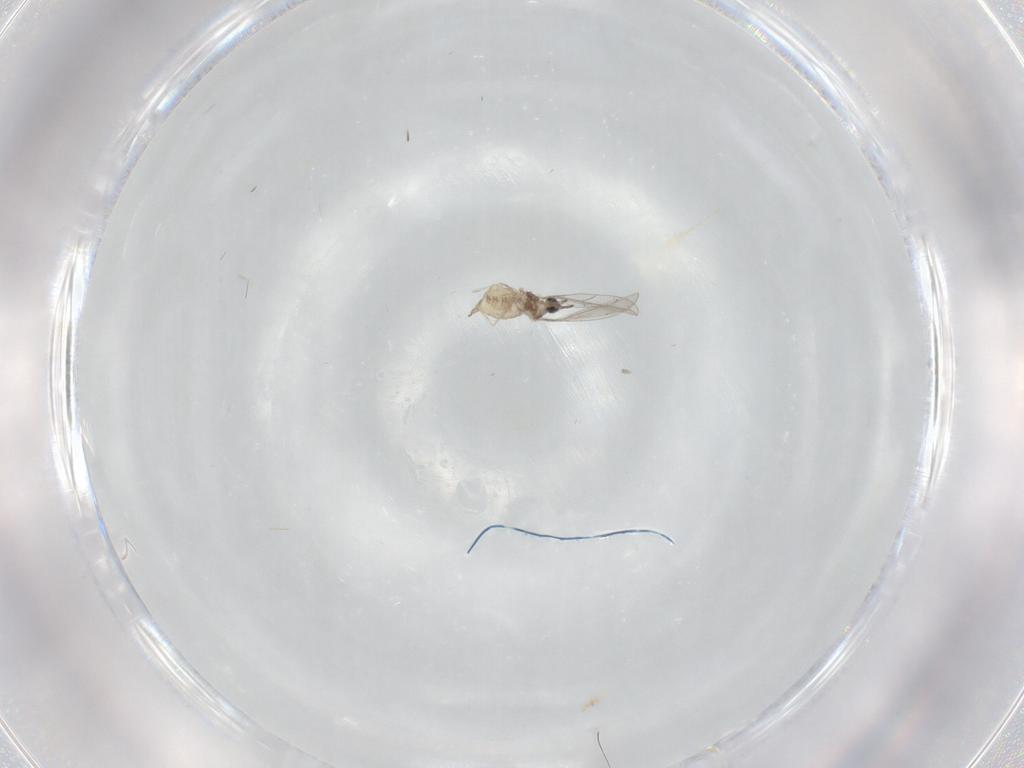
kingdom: Animalia
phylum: Arthropoda
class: Insecta
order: Diptera
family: Cecidomyiidae
